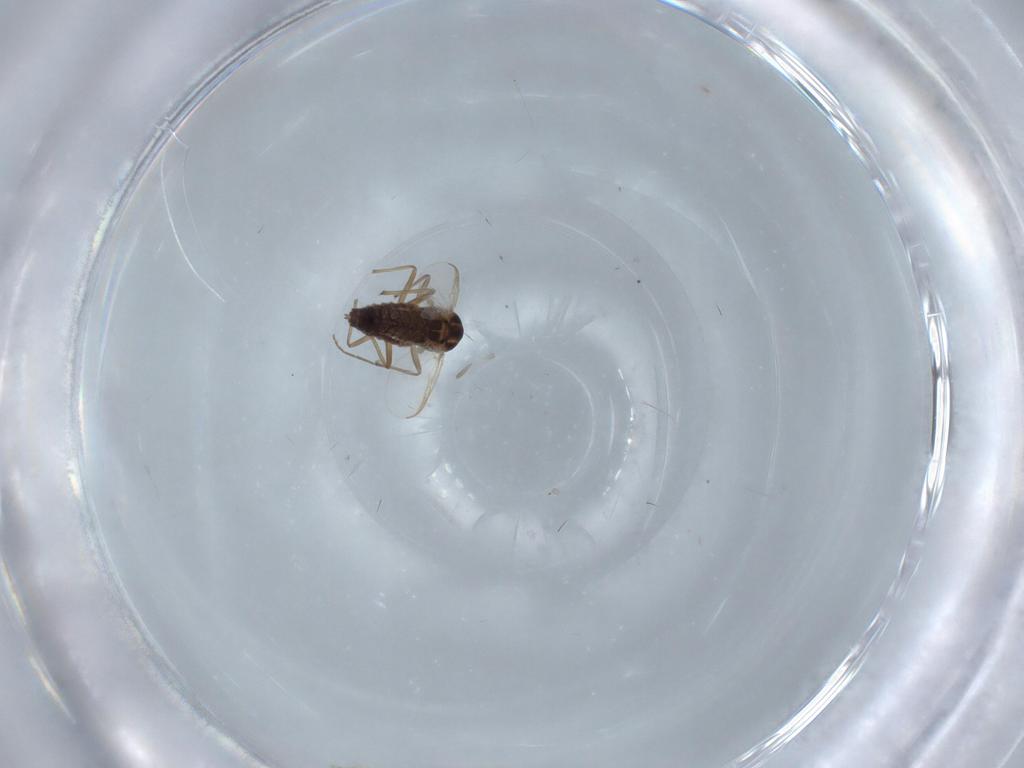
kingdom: Animalia
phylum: Arthropoda
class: Insecta
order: Diptera
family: Chironomidae
